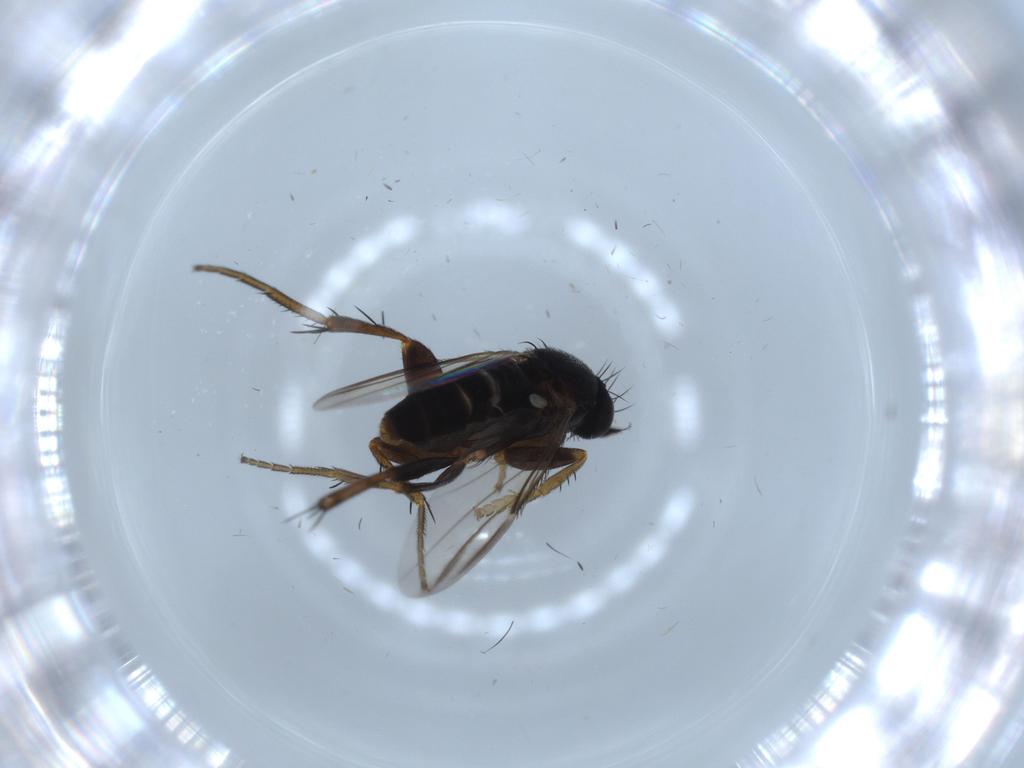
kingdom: Animalia
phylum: Arthropoda
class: Insecta
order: Diptera
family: Phoridae
